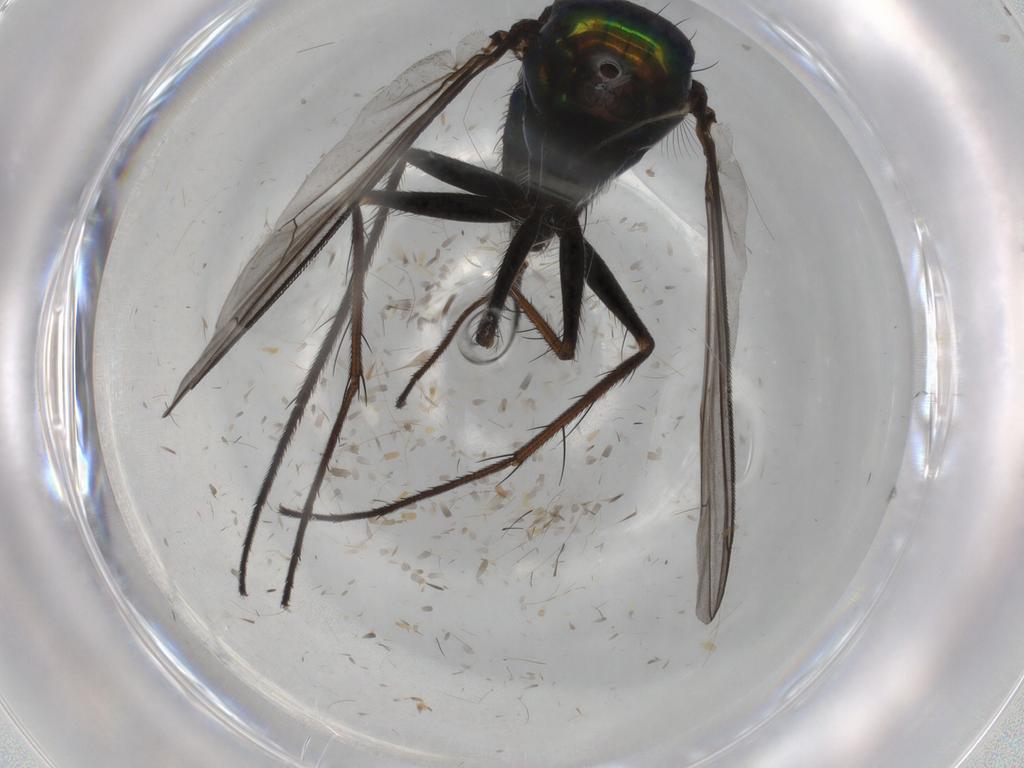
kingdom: Animalia
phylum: Arthropoda
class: Insecta
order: Diptera
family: Dolichopodidae
